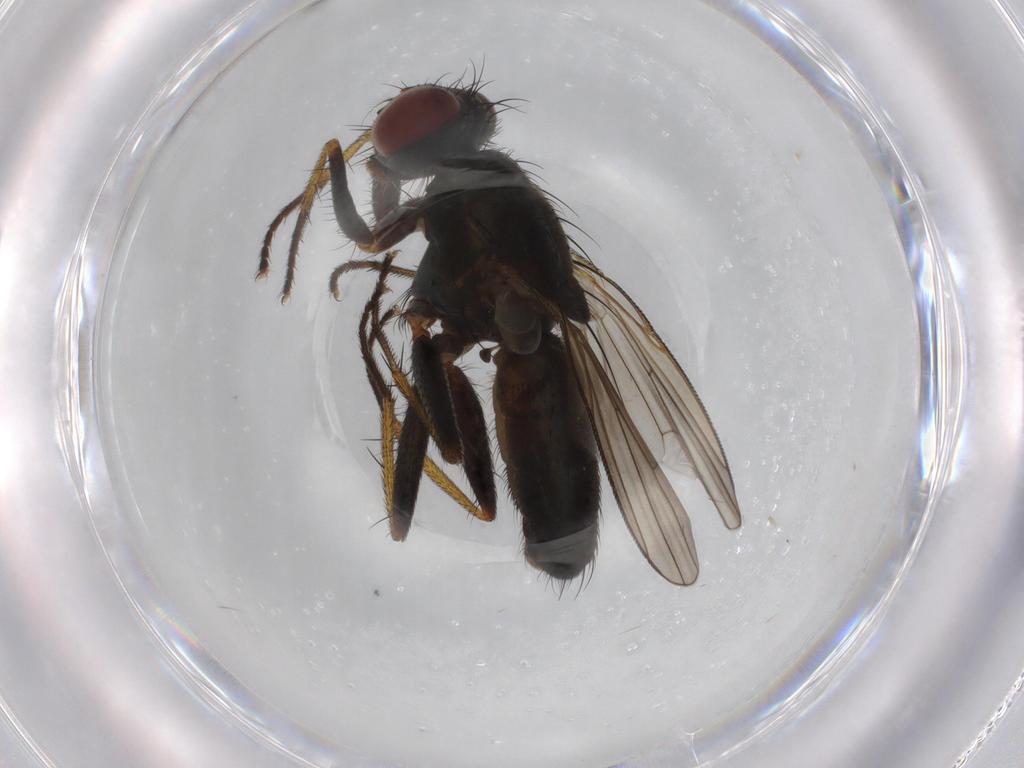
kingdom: Animalia
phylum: Arthropoda
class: Insecta
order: Diptera
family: Muscidae
